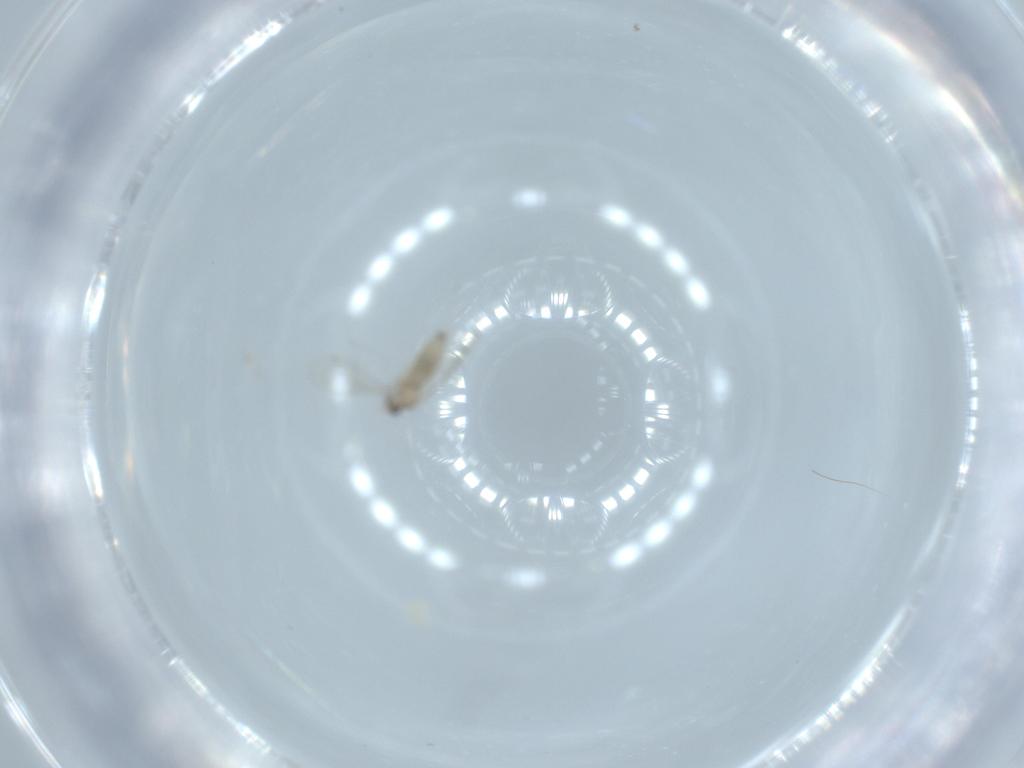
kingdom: Animalia
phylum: Arthropoda
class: Insecta
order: Diptera
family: Cecidomyiidae
